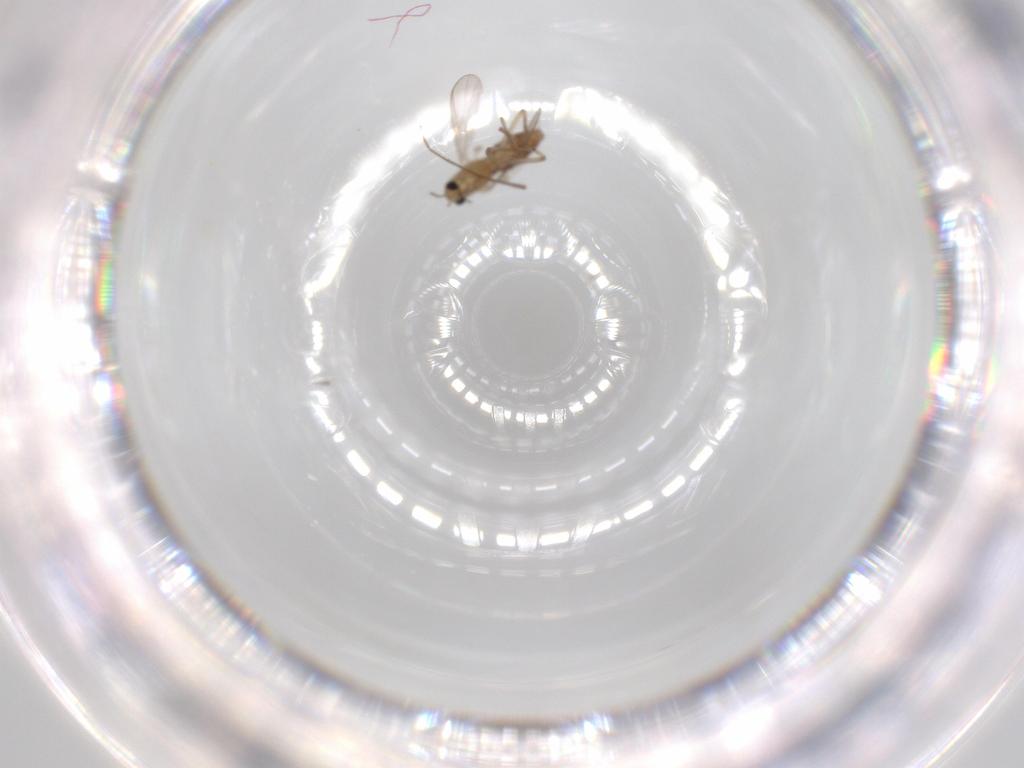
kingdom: Animalia
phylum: Arthropoda
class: Insecta
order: Diptera
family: Chironomidae
